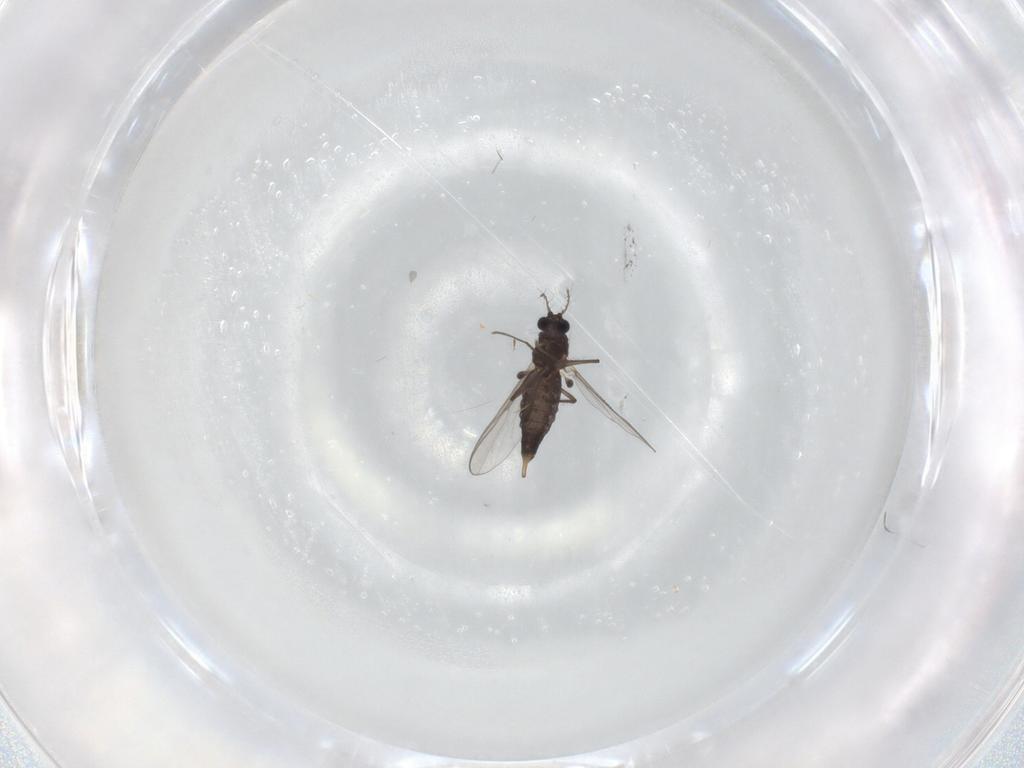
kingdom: Animalia
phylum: Arthropoda
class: Insecta
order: Diptera
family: Chironomidae
